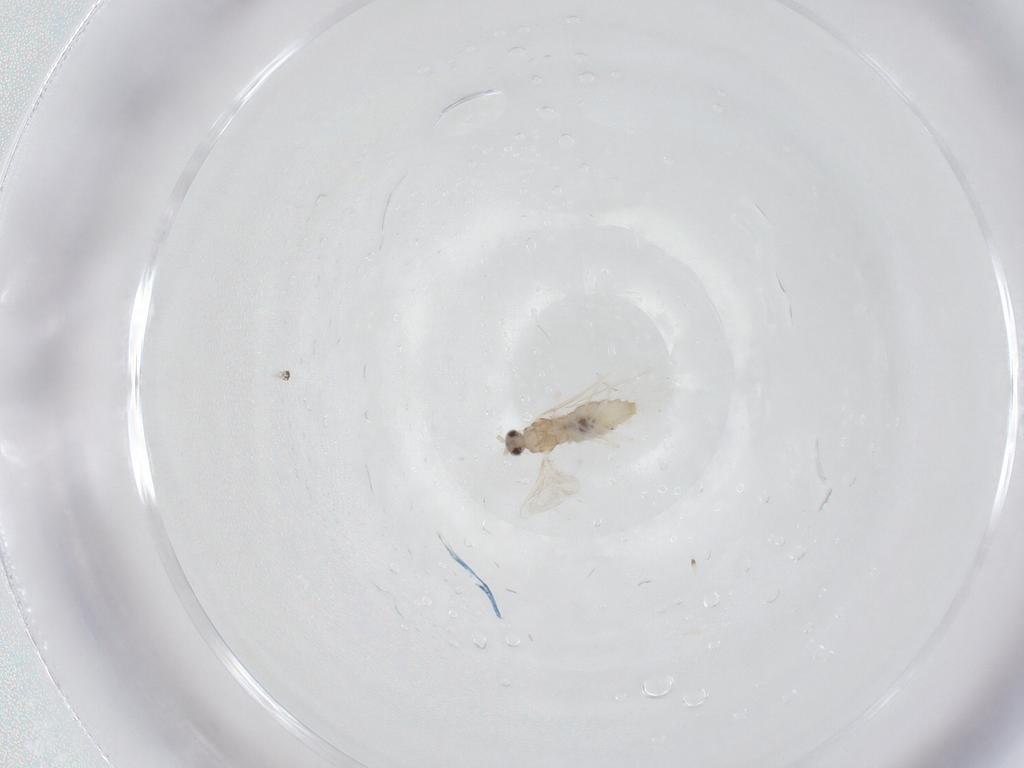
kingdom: Animalia
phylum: Arthropoda
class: Insecta
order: Diptera
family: Cecidomyiidae
